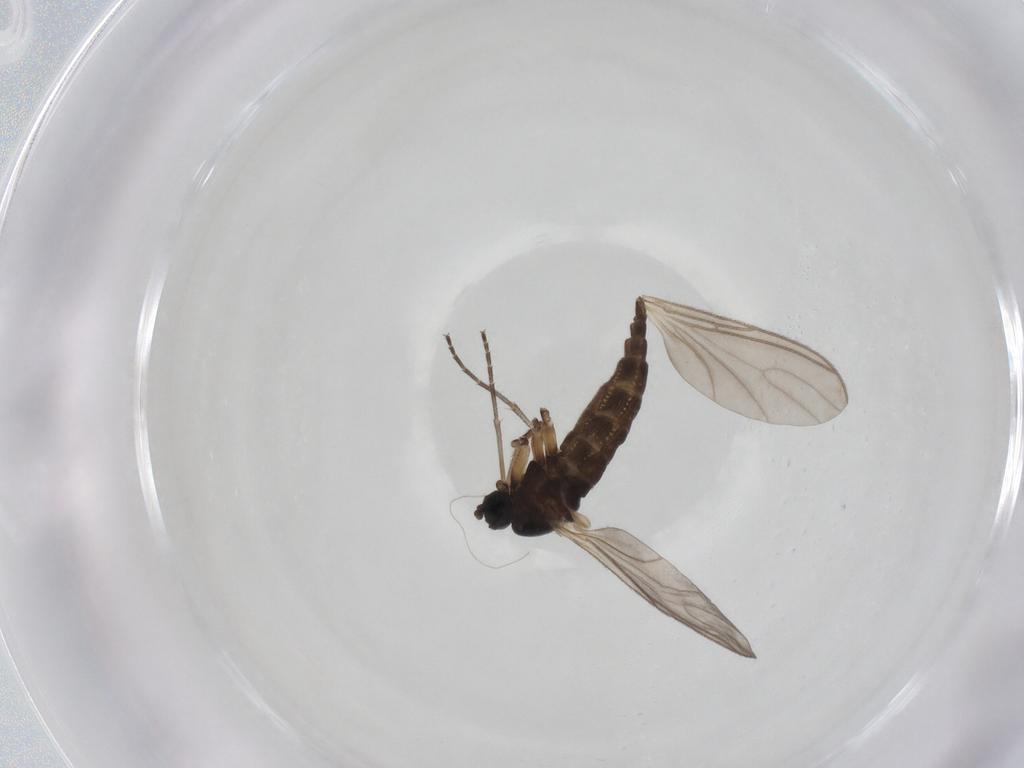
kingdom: Animalia
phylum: Arthropoda
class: Insecta
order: Diptera
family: Sciaridae
